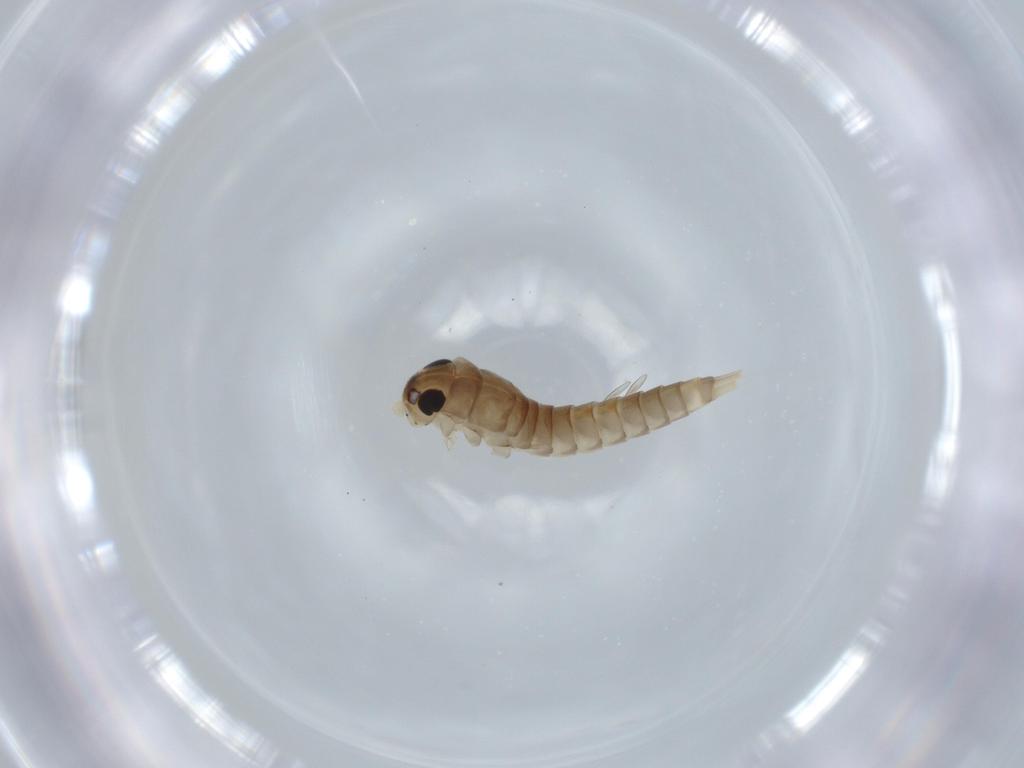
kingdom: Animalia
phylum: Arthropoda
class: Insecta
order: Ephemeroptera
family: Baetidae
